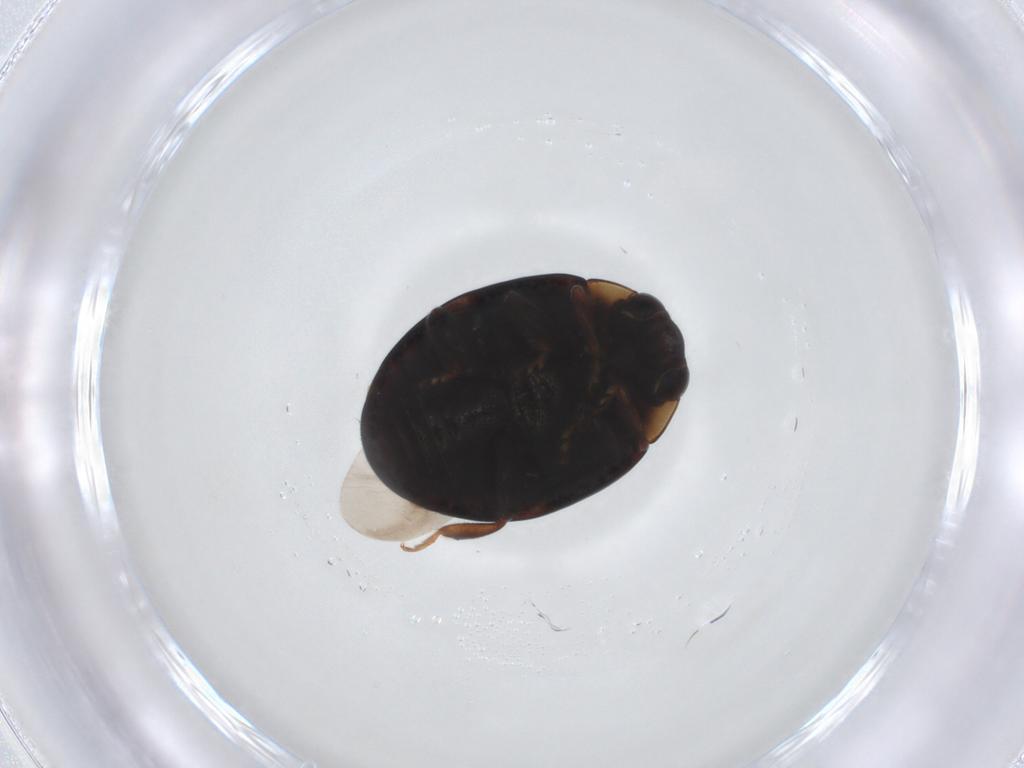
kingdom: Animalia
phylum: Arthropoda
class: Insecta
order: Coleoptera
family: Coccinellidae
